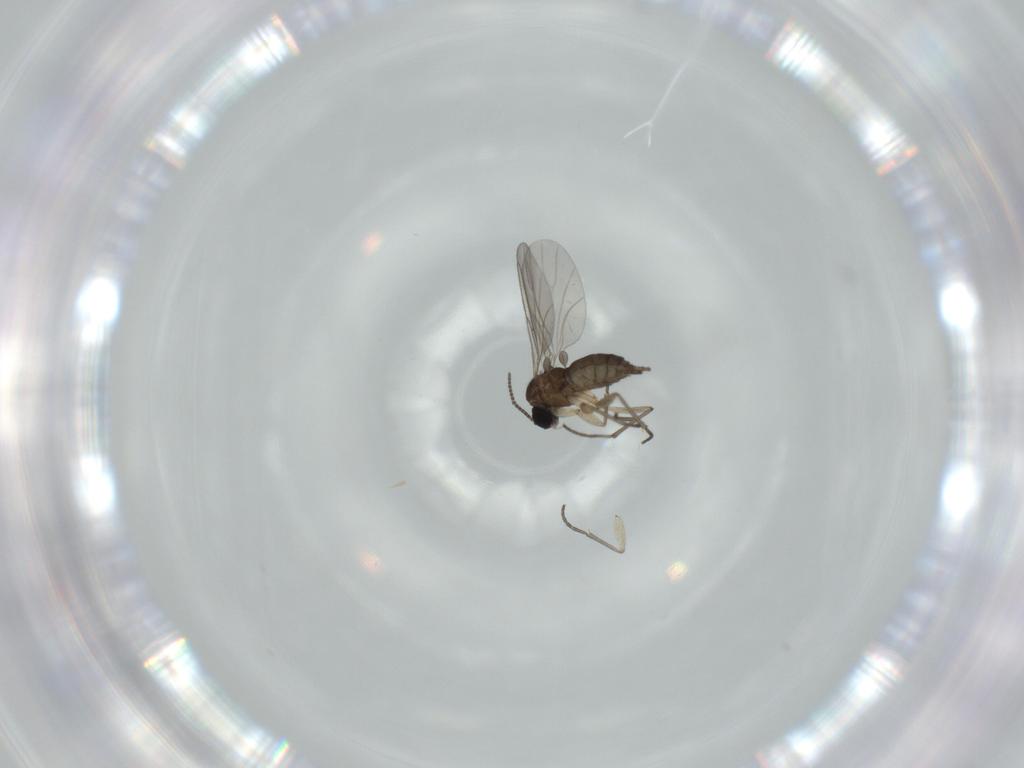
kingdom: Animalia
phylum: Arthropoda
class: Insecta
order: Diptera
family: Sciaridae
